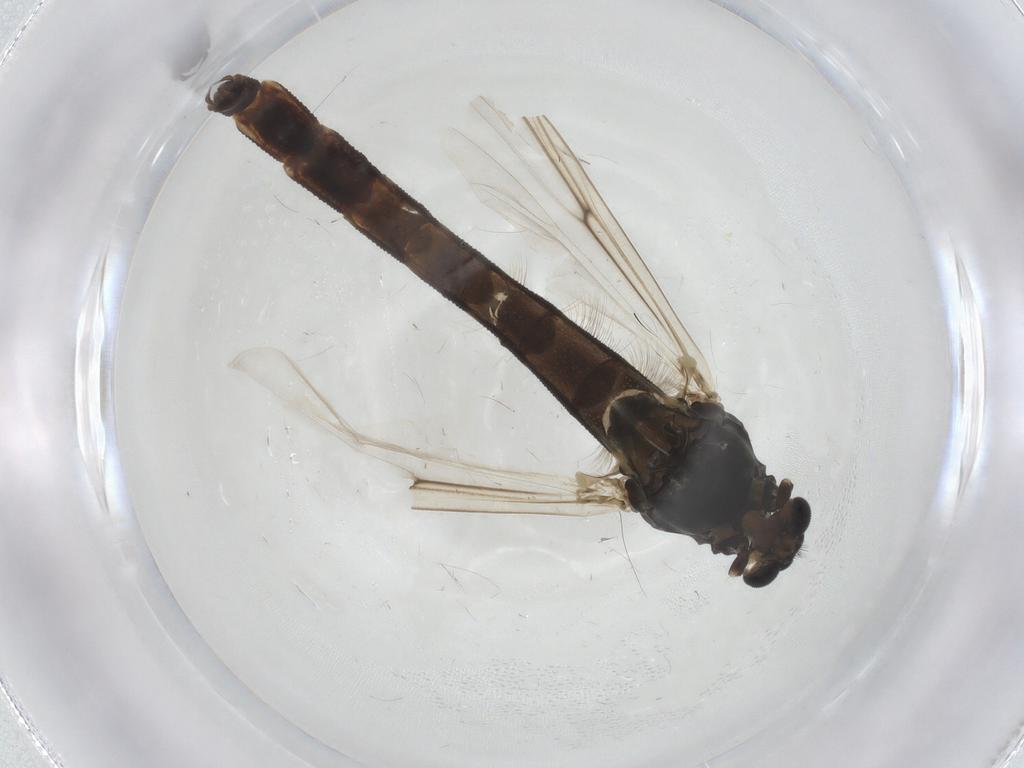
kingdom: Animalia
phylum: Arthropoda
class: Insecta
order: Diptera
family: Chironomidae
